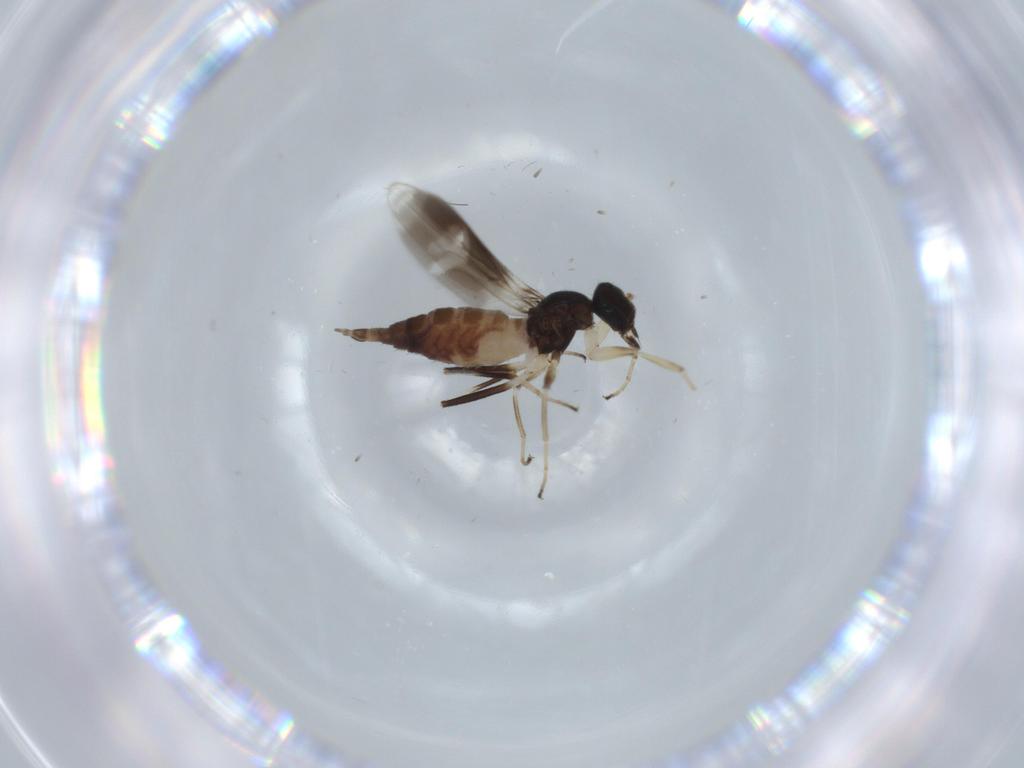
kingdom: Animalia
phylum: Arthropoda
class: Insecta
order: Diptera
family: Hybotidae
